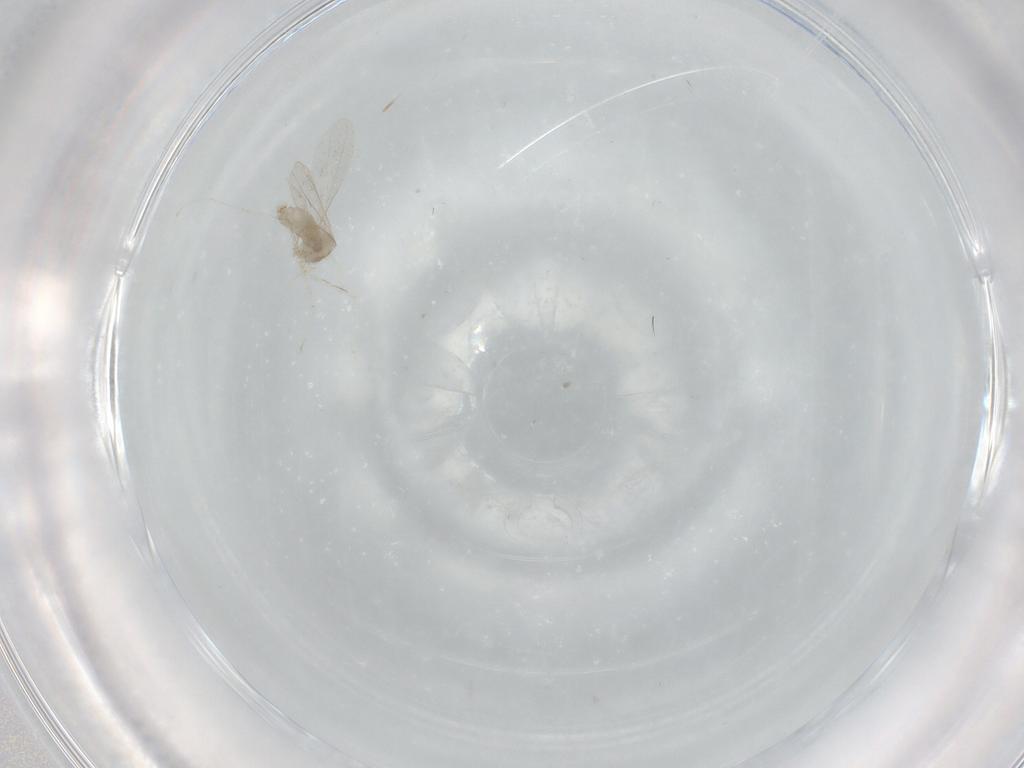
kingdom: Animalia
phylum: Arthropoda
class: Insecta
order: Diptera
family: Cecidomyiidae
